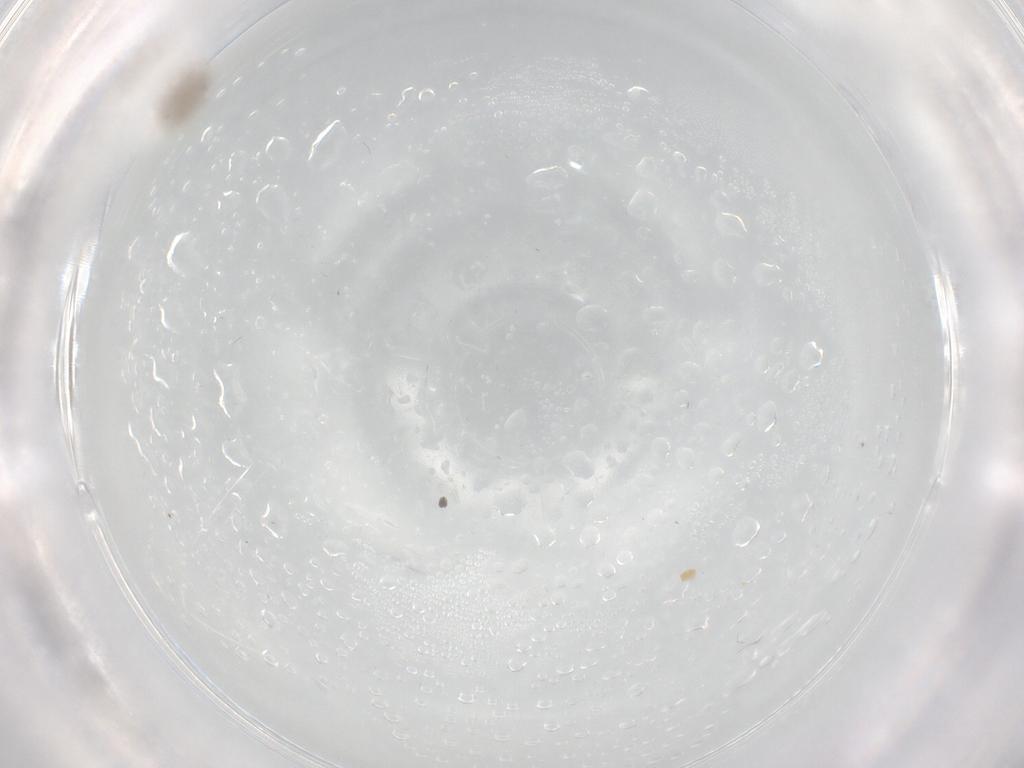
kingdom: Animalia
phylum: Arthropoda
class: Insecta
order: Diptera
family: Psychodidae
